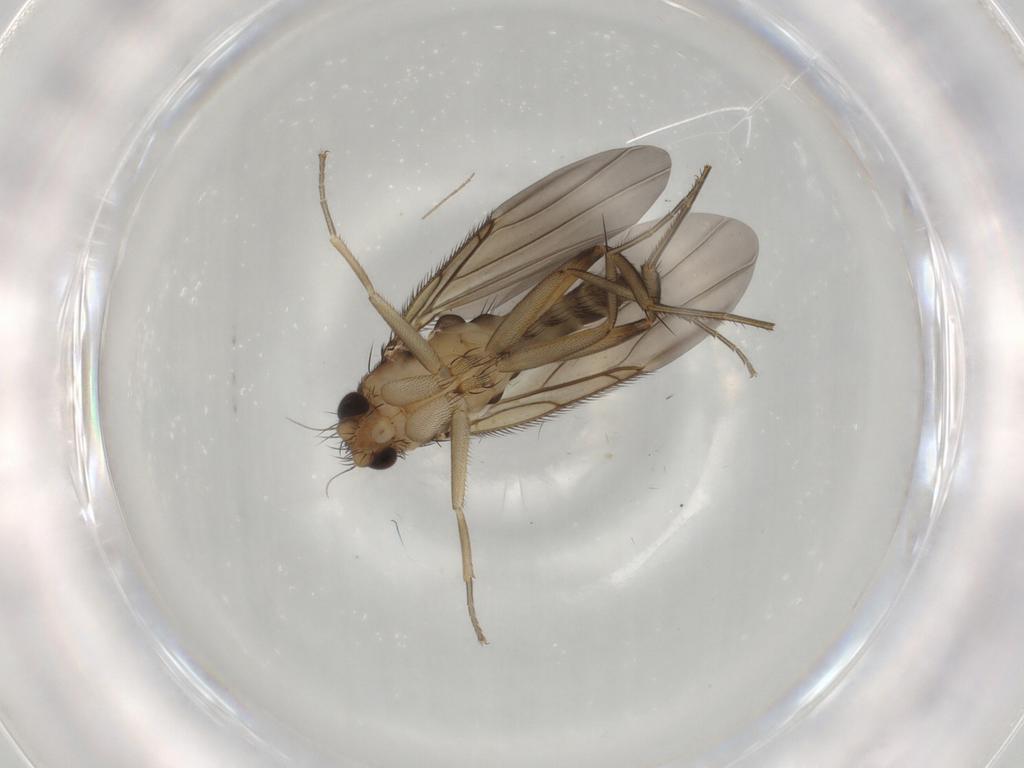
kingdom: Animalia
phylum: Arthropoda
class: Insecta
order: Diptera
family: Phoridae
